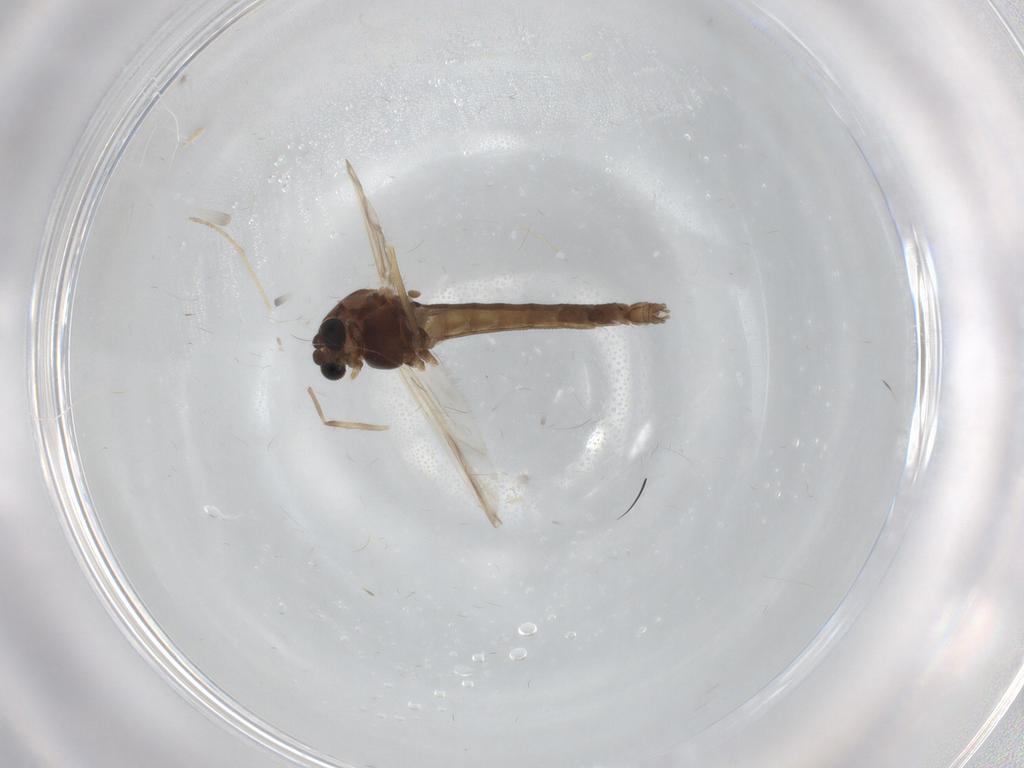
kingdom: Animalia
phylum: Arthropoda
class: Insecta
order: Diptera
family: Chironomidae
